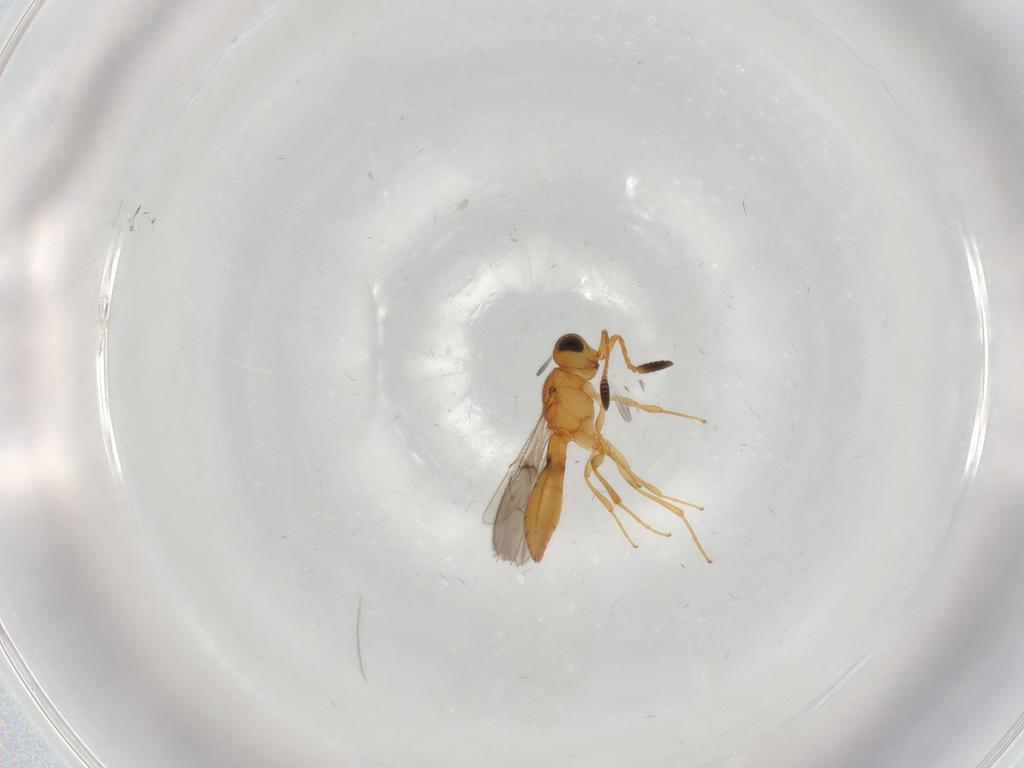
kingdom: Animalia
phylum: Arthropoda
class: Insecta
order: Hymenoptera
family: Scelionidae
